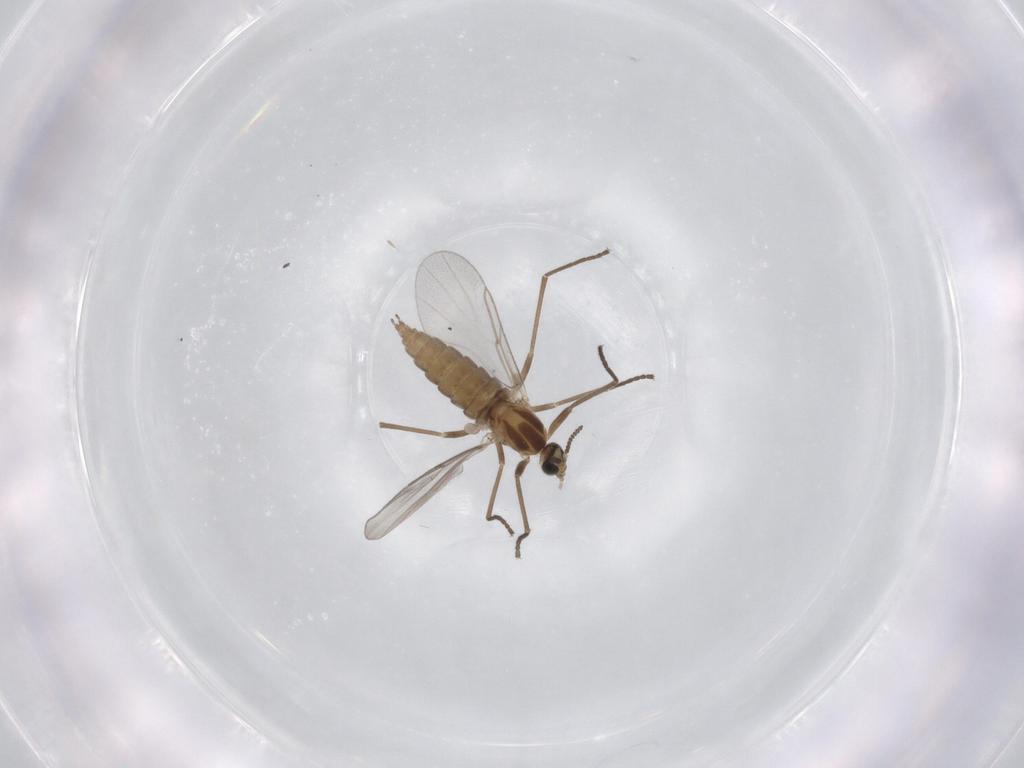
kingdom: Animalia
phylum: Arthropoda
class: Insecta
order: Diptera
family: Cecidomyiidae
